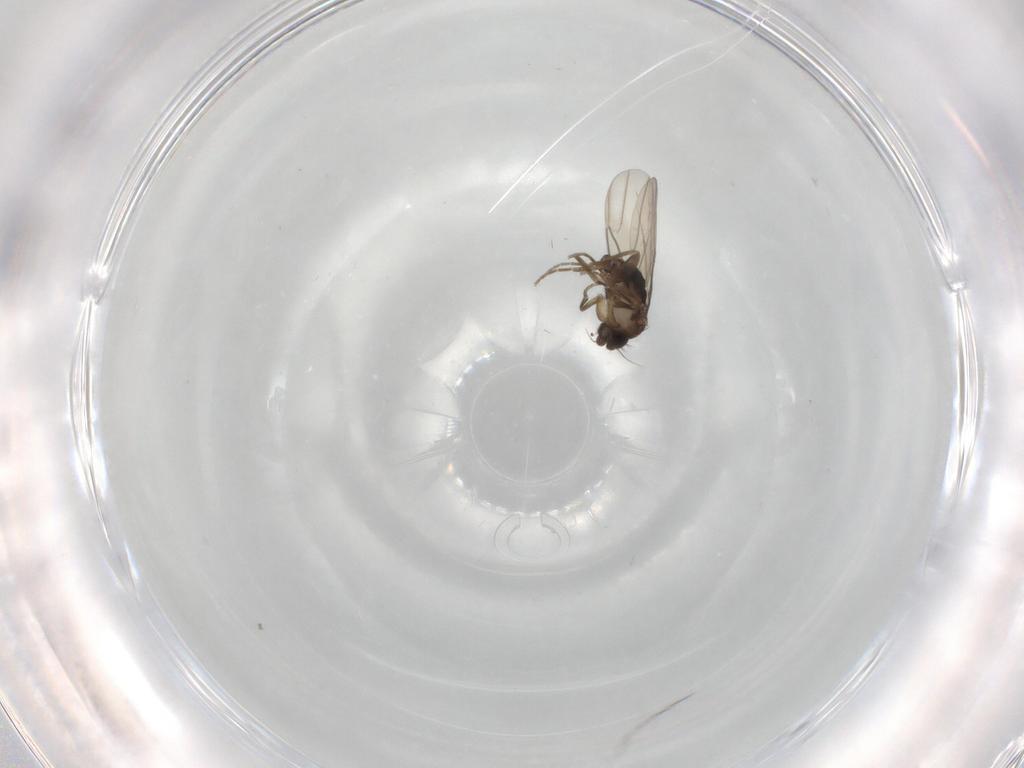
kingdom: Animalia
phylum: Arthropoda
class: Insecta
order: Diptera
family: Phoridae
